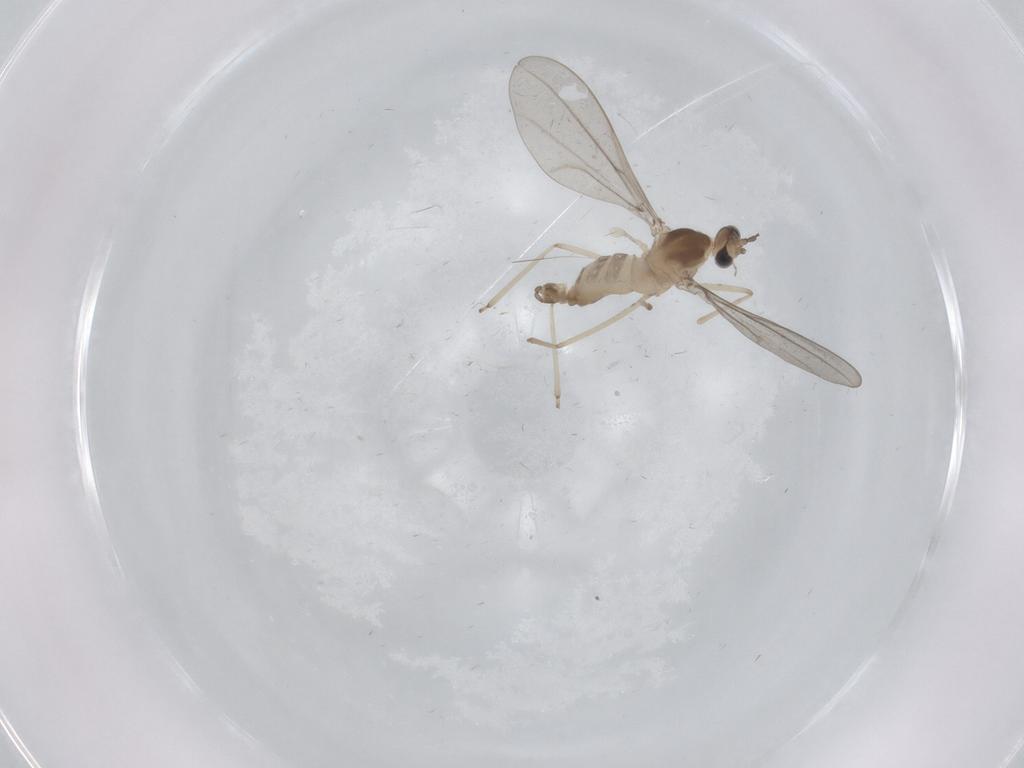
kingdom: Animalia
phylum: Arthropoda
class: Insecta
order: Diptera
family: Cecidomyiidae
